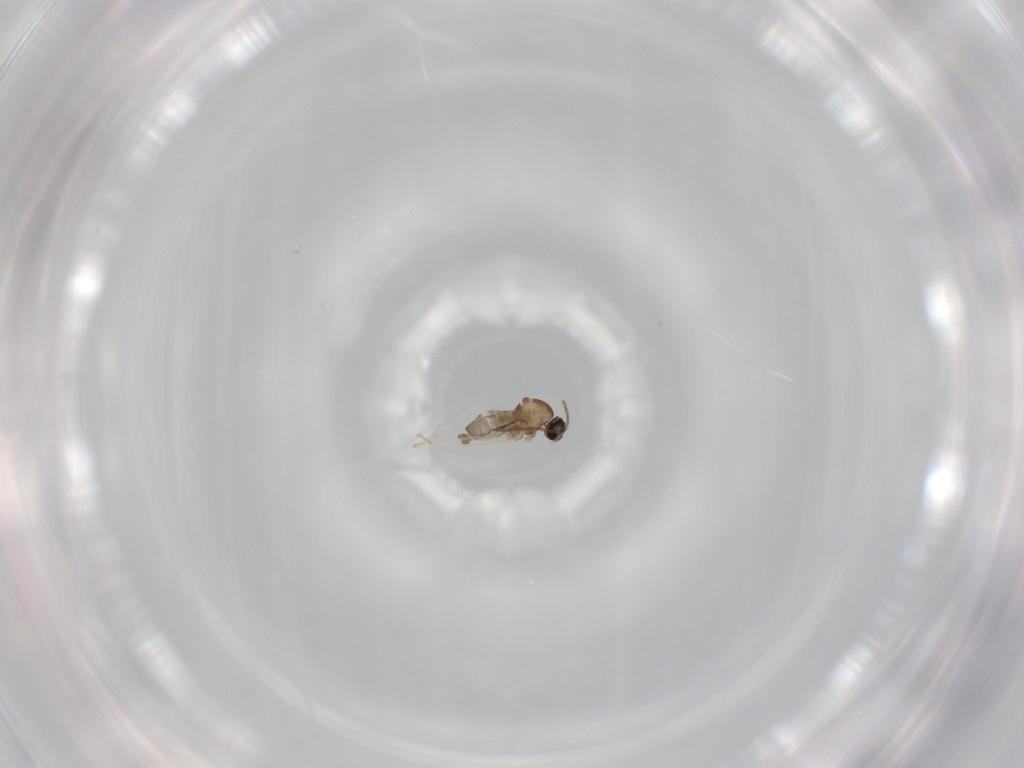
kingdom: Animalia
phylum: Arthropoda
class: Insecta
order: Diptera
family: Cecidomyiidae
